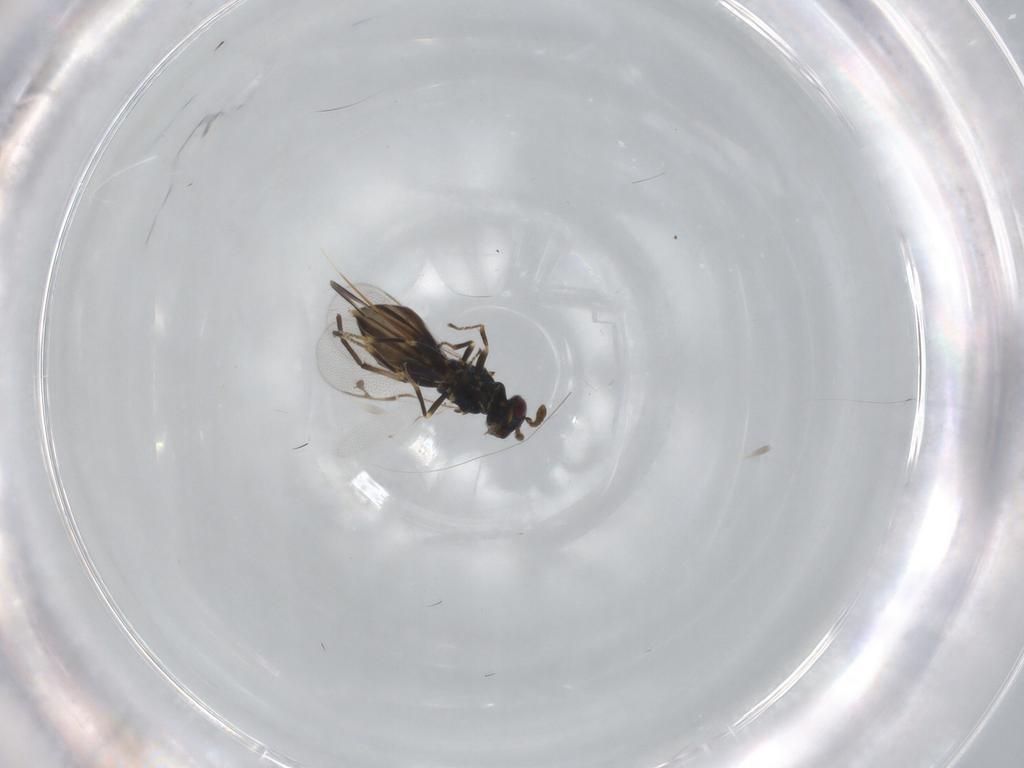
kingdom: Animalia
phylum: Arthropoda
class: Insecta
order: Hymenoptera
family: Pteromalidae
